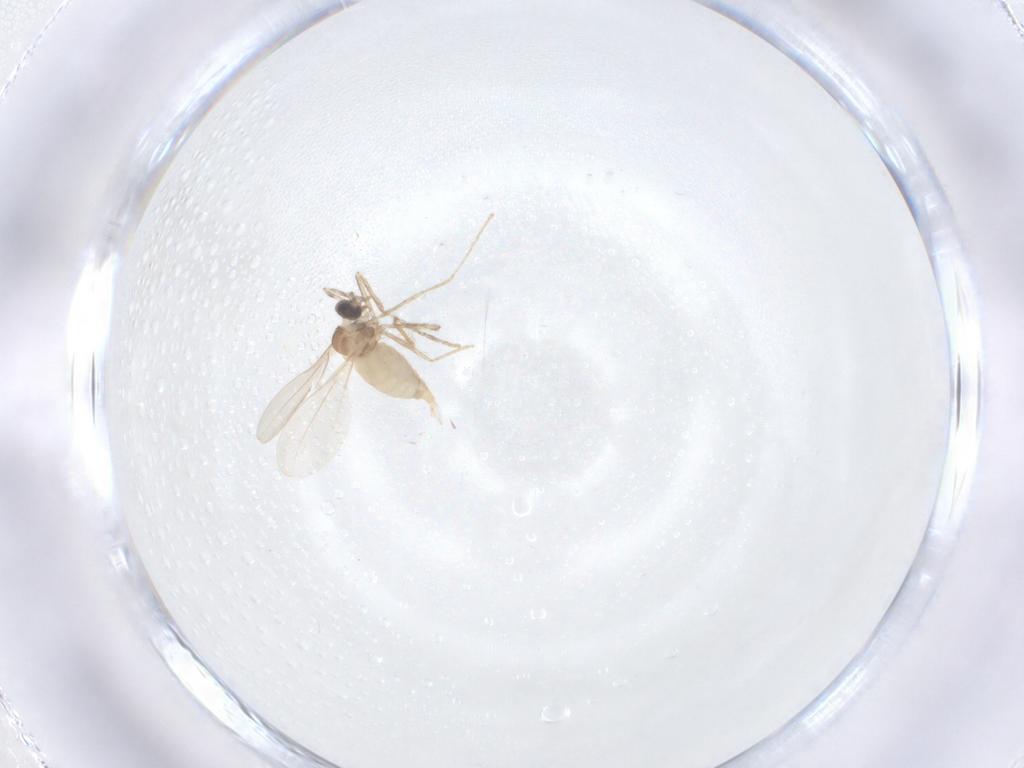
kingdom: Animalia
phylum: Arthropoda
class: Insecta
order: Diptera
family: Cecidomyiidae
